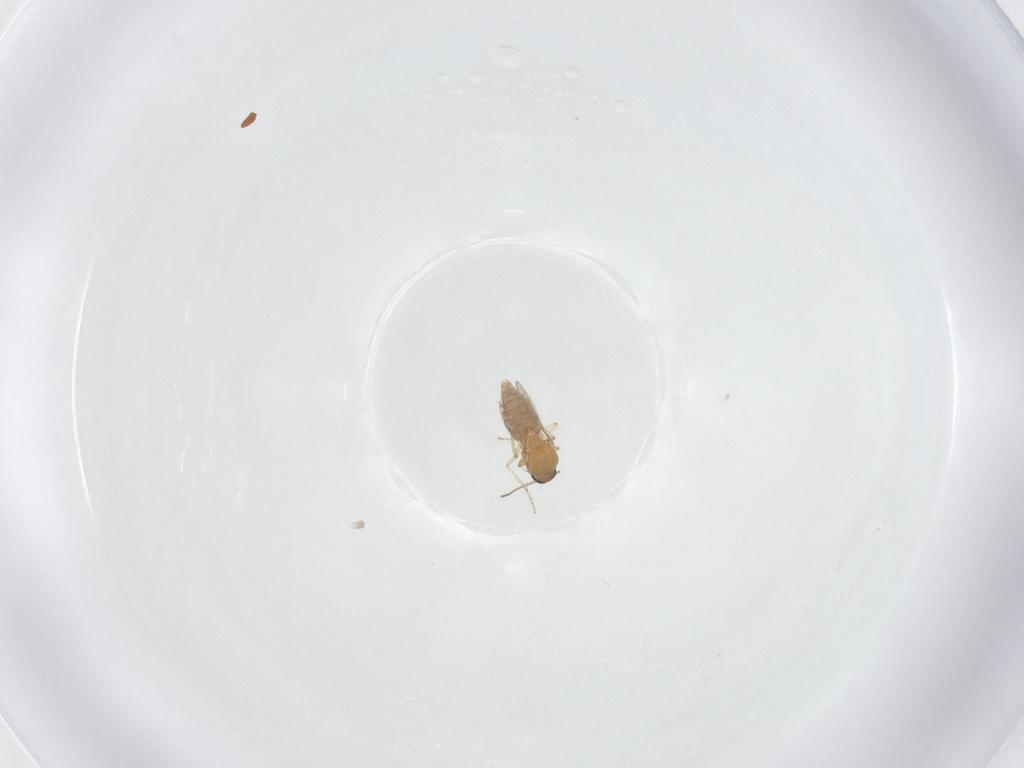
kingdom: Animalia
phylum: Arthropoda
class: Insecta
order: Diptera
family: Ceratopogonidae
